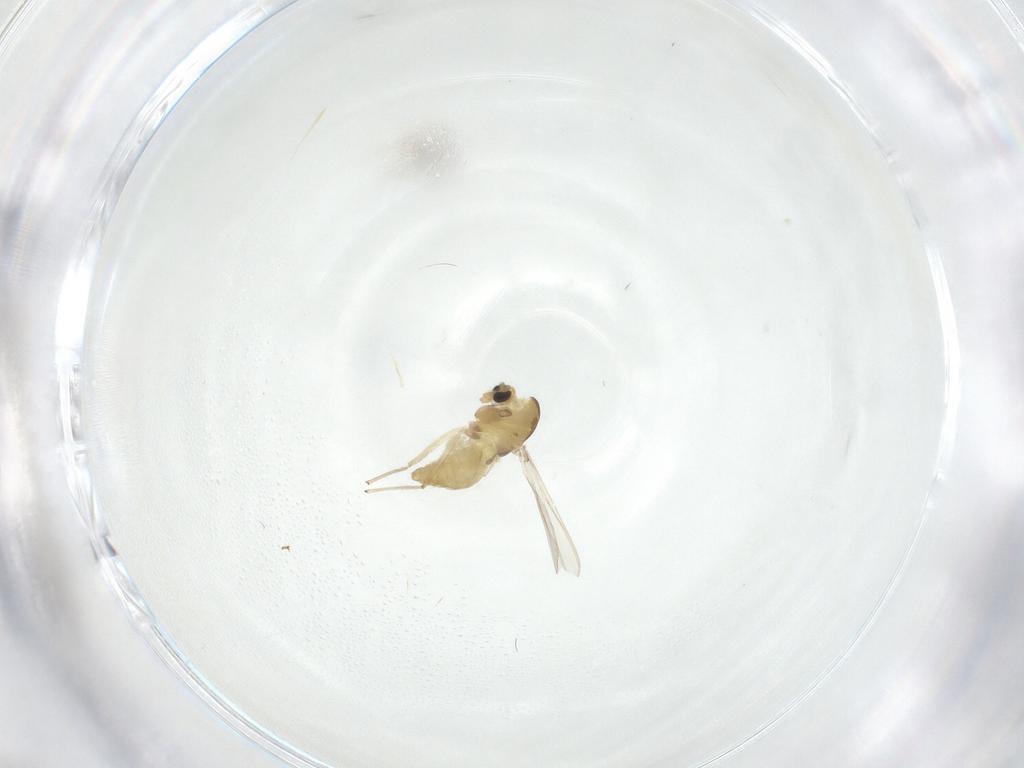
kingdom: Animalia
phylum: Arthropoda
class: Insecta
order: Diptera
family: Chironomidae
